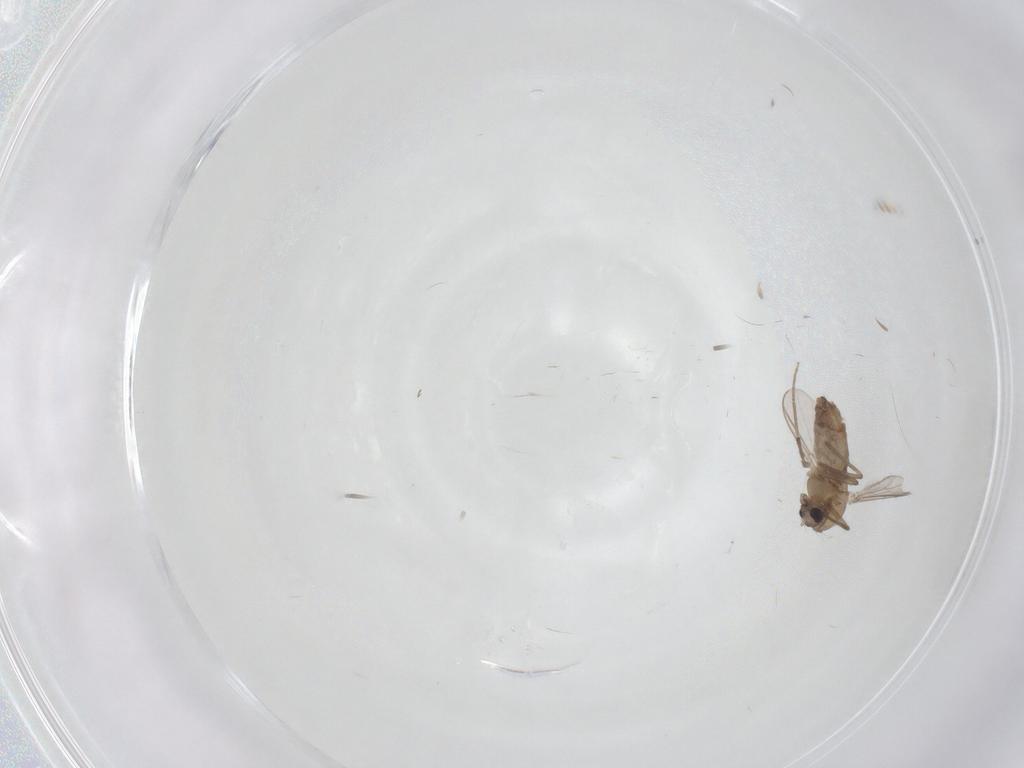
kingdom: Animalia
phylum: Arthropoda
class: Insecta
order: Diptera
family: Chironomidae
